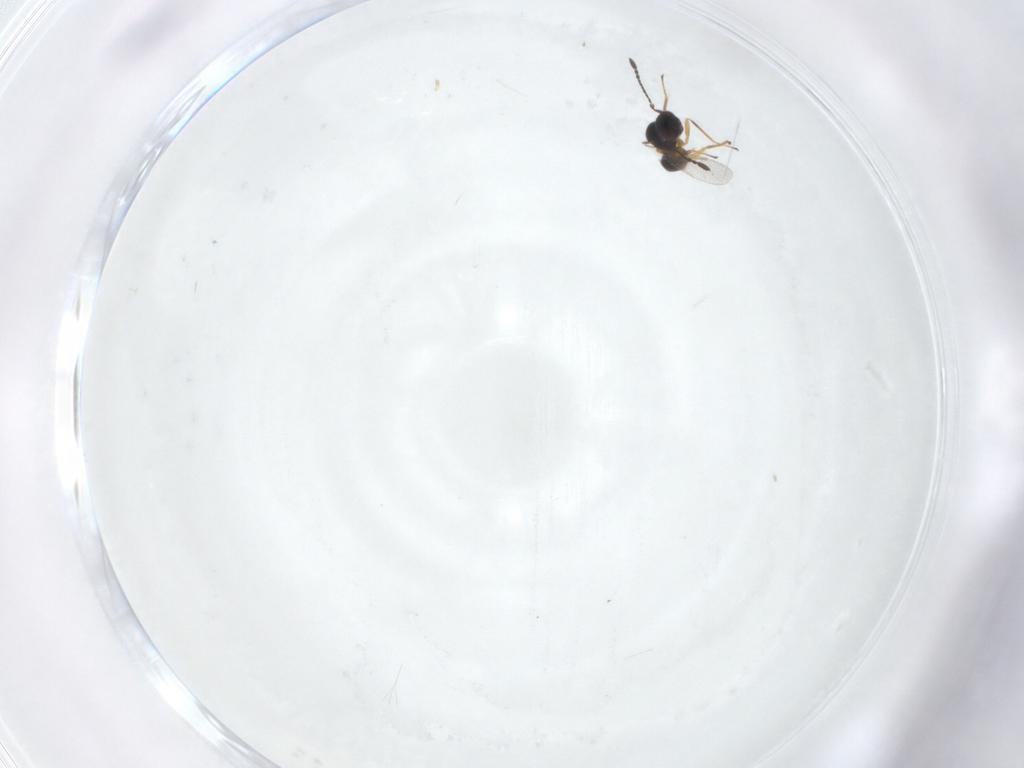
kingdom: Animalia
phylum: Arthropoda
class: Insecta
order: Hymenoptera
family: Mymaridae
